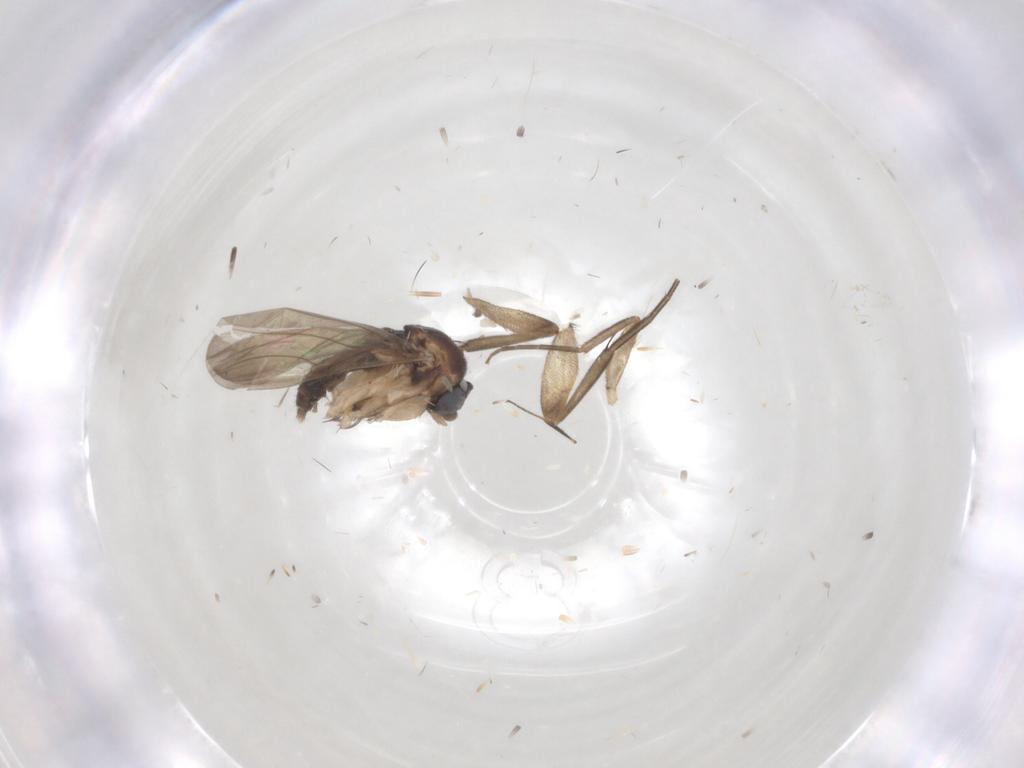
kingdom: Animalia
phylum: Arthropoda
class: Insecta
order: Diptera
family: Phoridae
